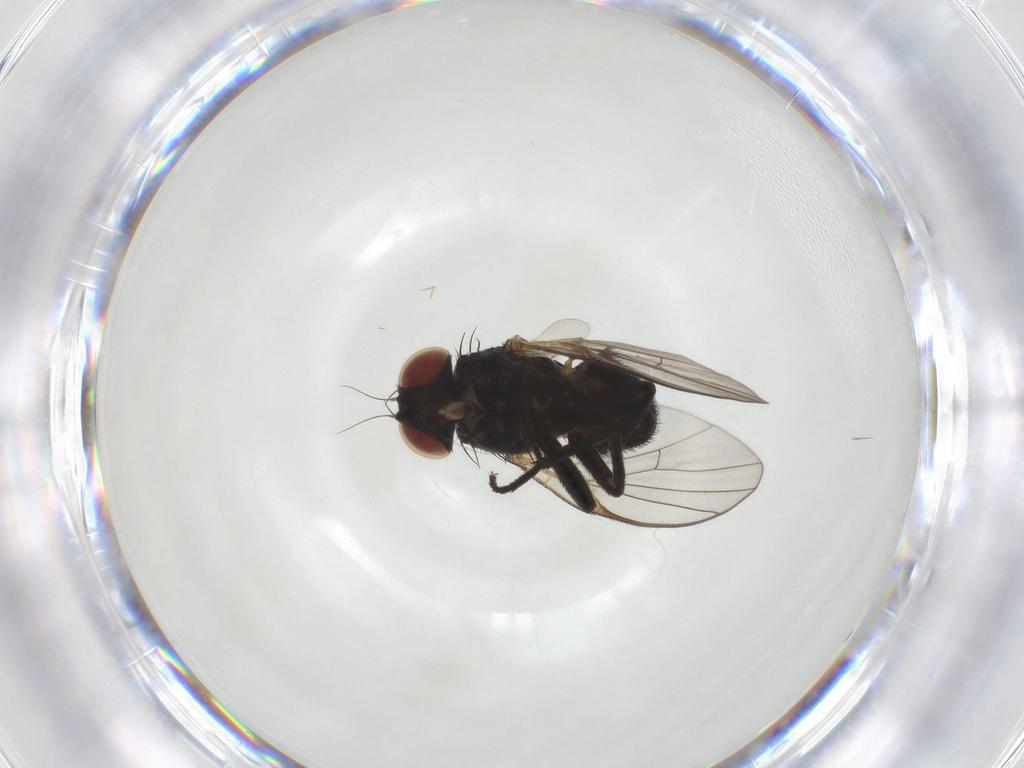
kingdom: Animalia
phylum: Arthropoda
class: Insecta
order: Diptera
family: Agromyzidae
